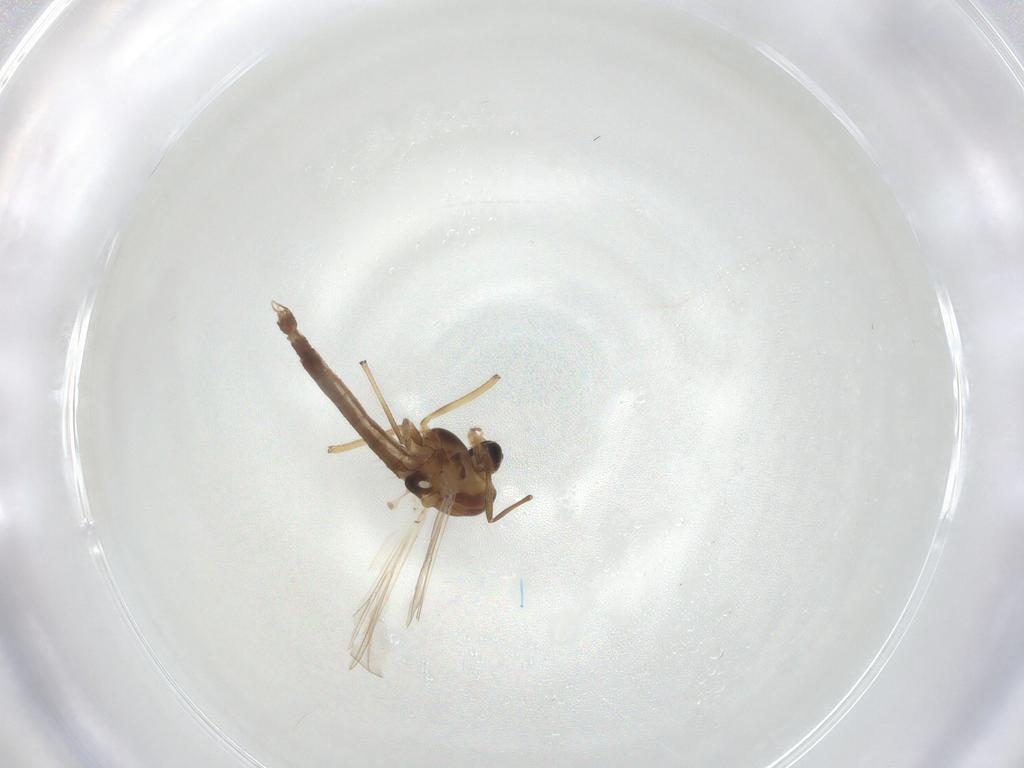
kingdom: Animalia
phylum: Arthropoda
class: Insecta
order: Diptera
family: Chironomidae
